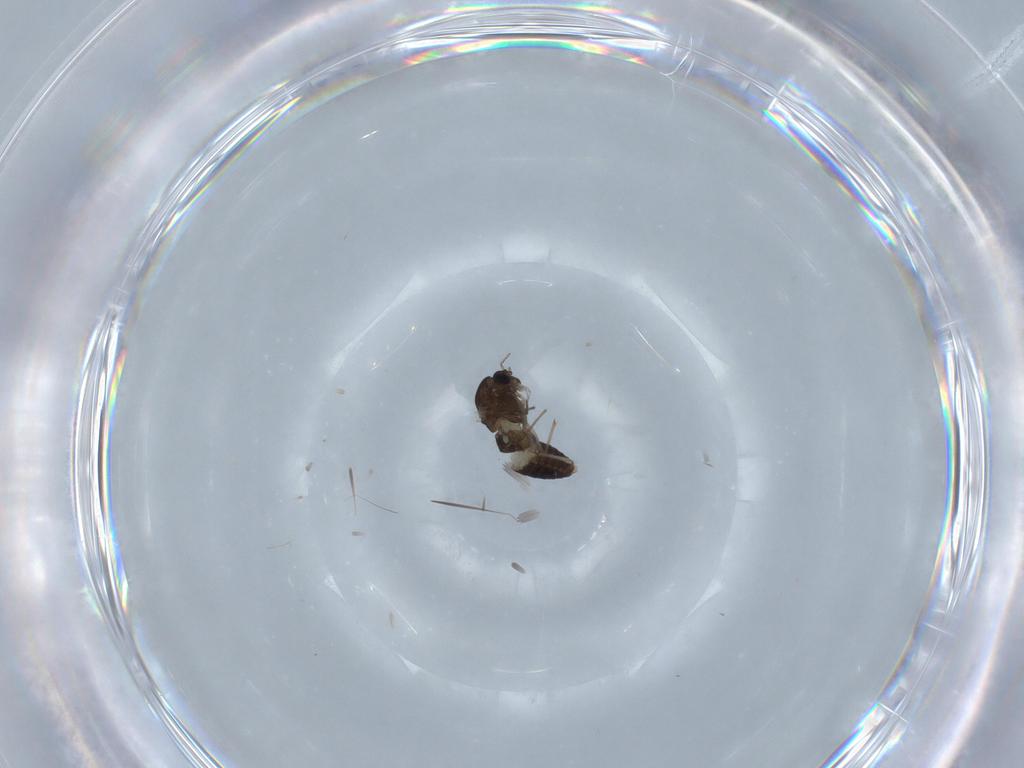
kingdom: Animalia
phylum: Arthropoda
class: Insecta
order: Diptera
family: Chironomidae
